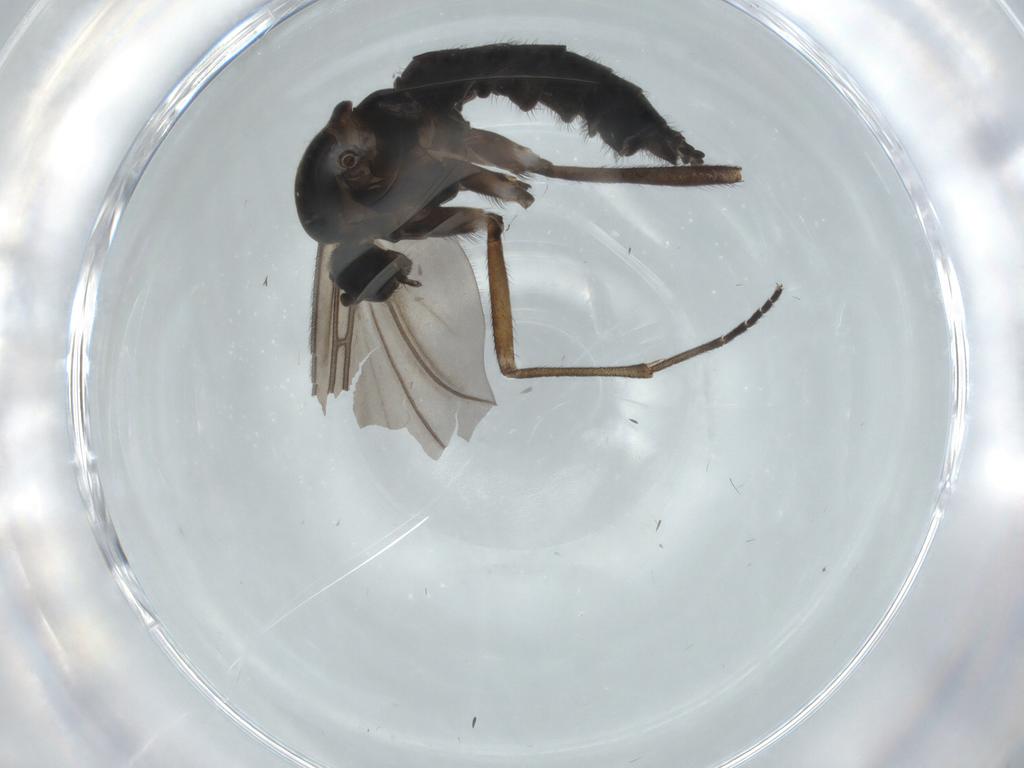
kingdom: Animalia
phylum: Arthropoda
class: Insecta
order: Diptera
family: Sciaridae
